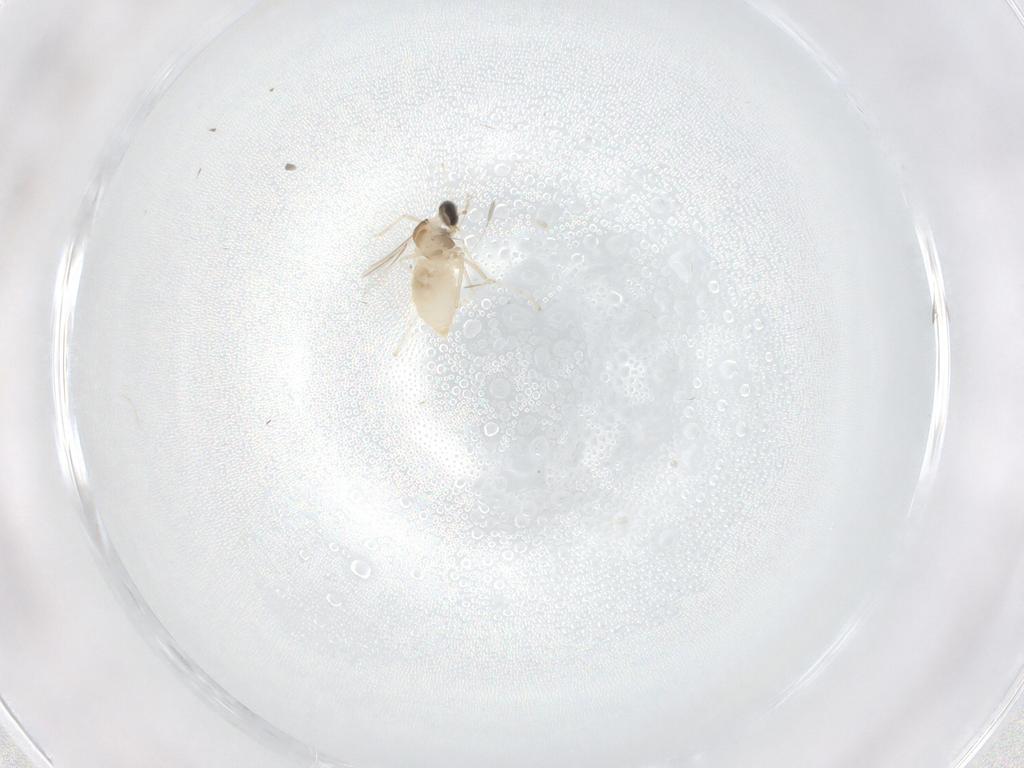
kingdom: Animalia
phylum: Arthropoda
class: Insecta
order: Diptera
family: Cecidomyiidae
